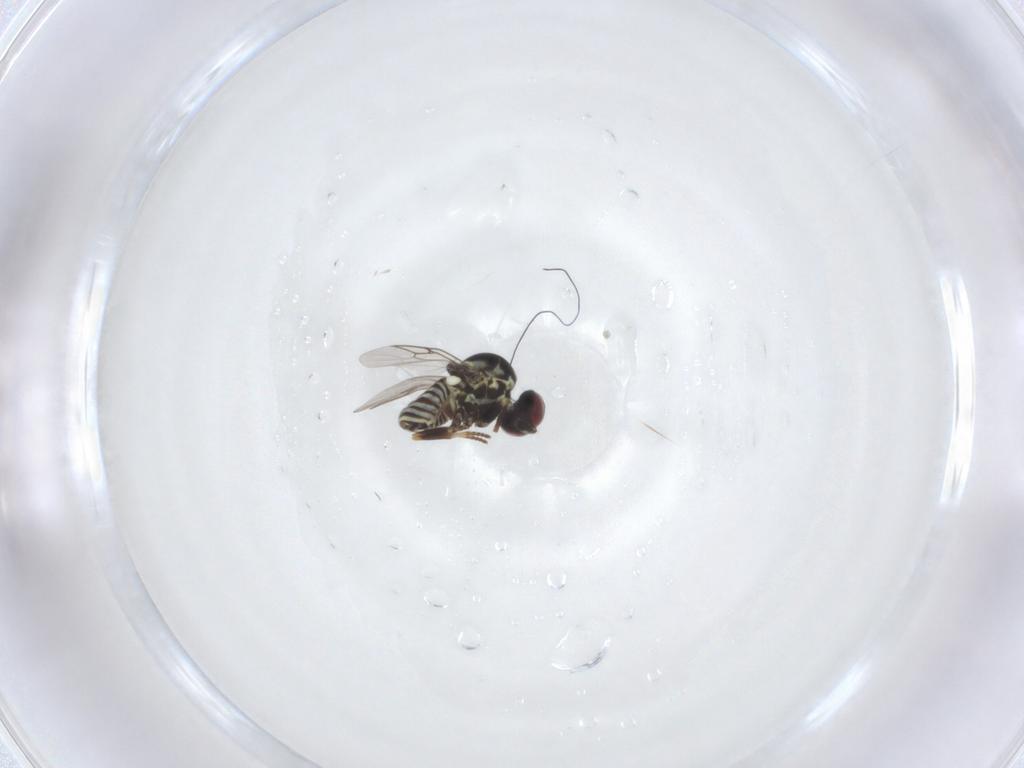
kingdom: Animalia
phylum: Arthropoda
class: Insecta
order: Diptera
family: Mythicomyiidae
